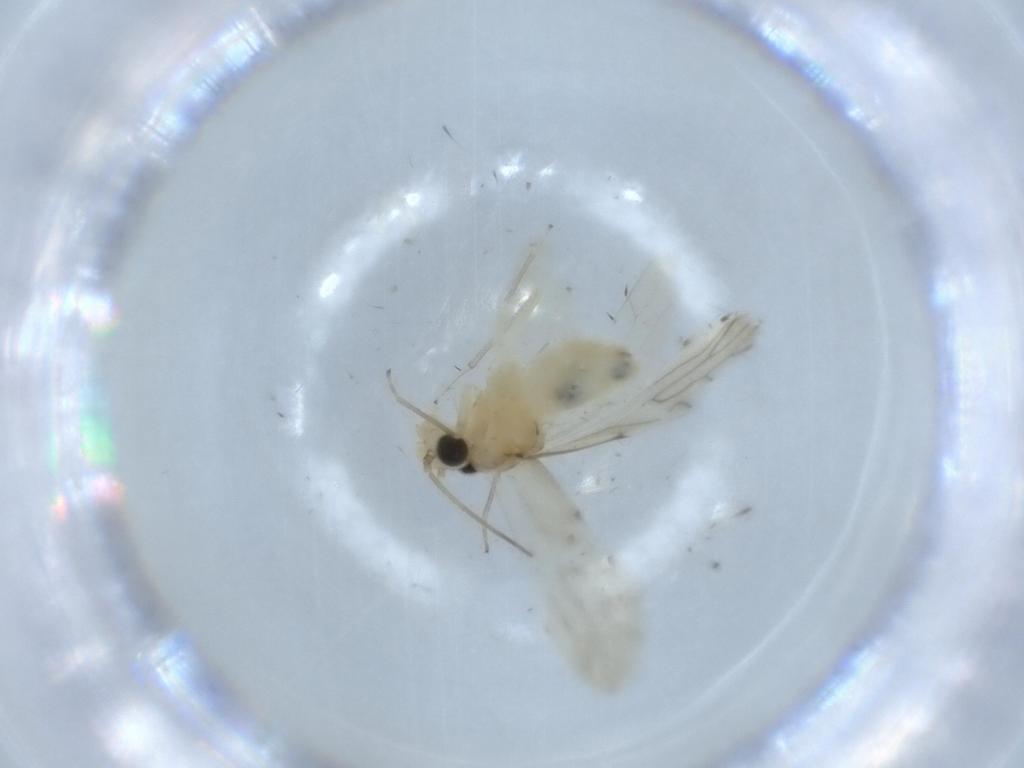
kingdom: Animalia
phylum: Arthropoda
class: Insecta
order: Psocodea
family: Caeciliusidae
